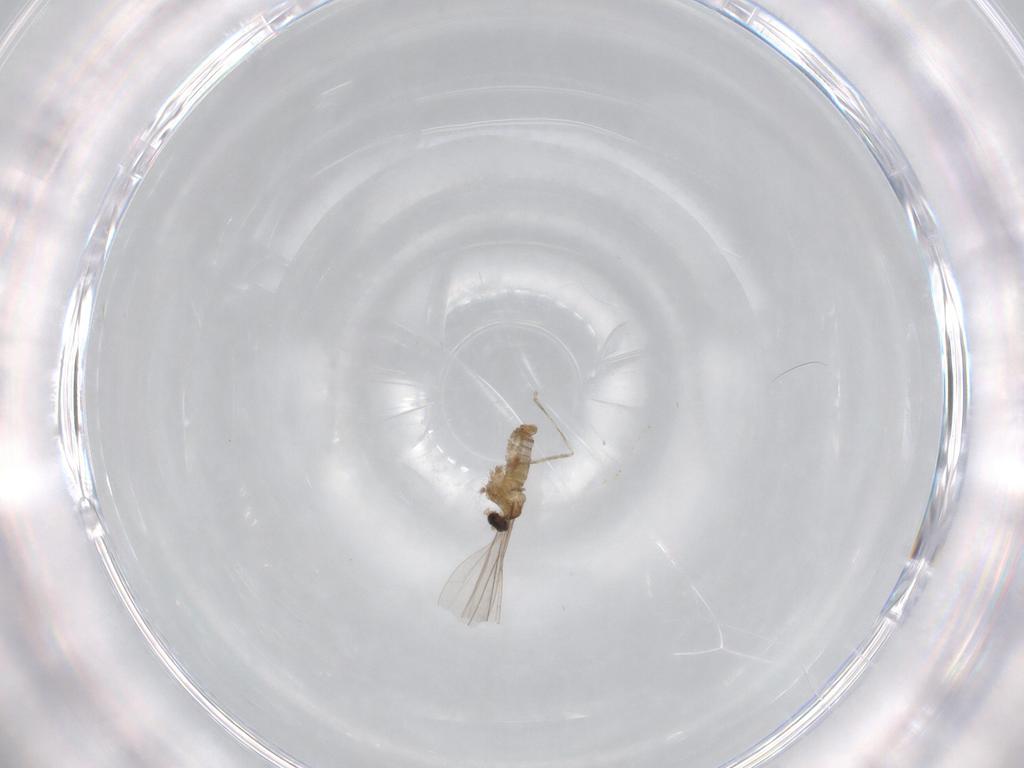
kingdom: Animalia
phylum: Arthropoda
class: Insecta
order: Diptera
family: Cecidomyiidae
